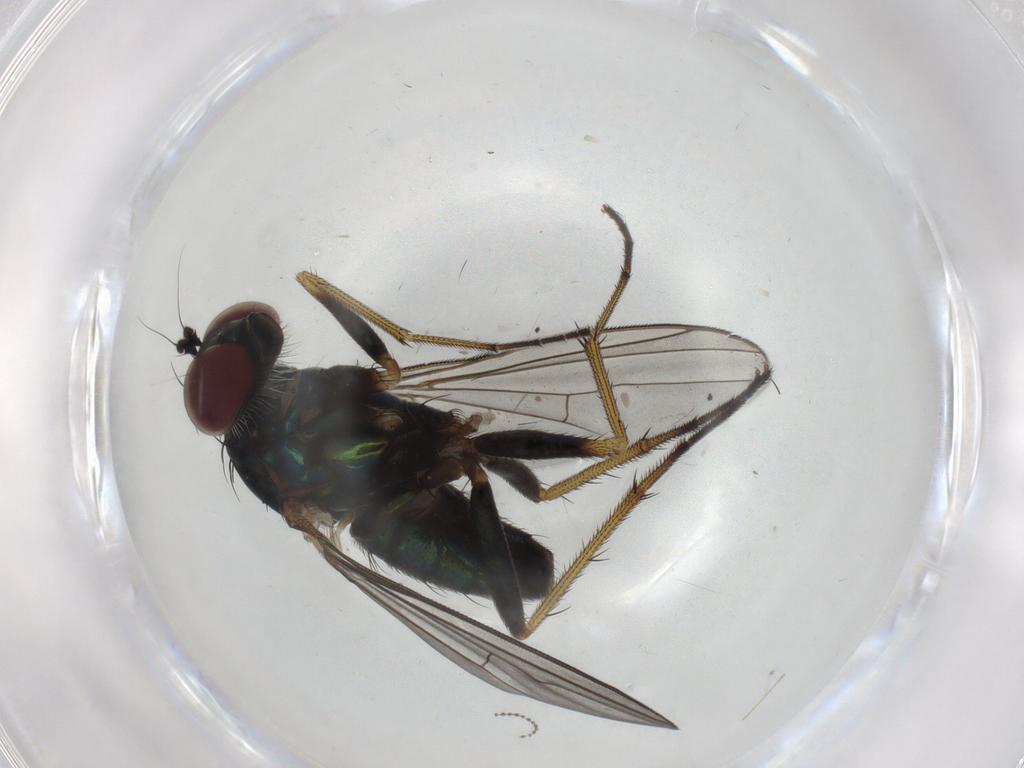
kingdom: Animalia
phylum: Arthropoda
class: Insecta
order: Diptera
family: Dolichopodidae
